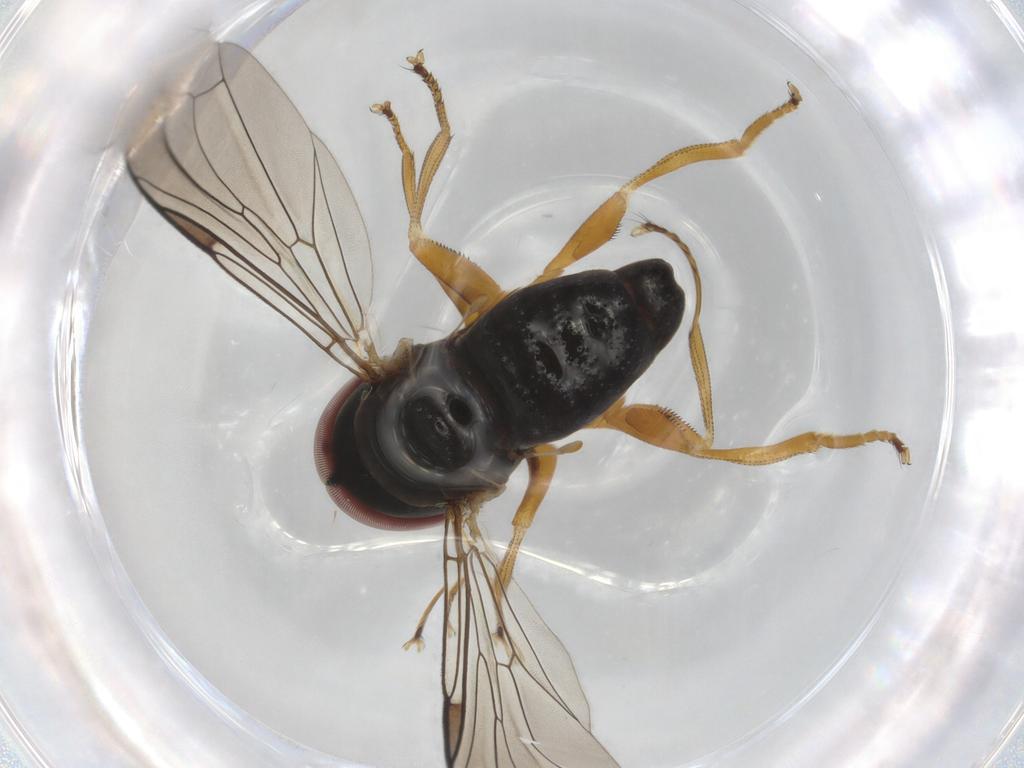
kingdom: Animalia
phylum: Arthropoda
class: Insecta
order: Diptera
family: Pipunculidae
